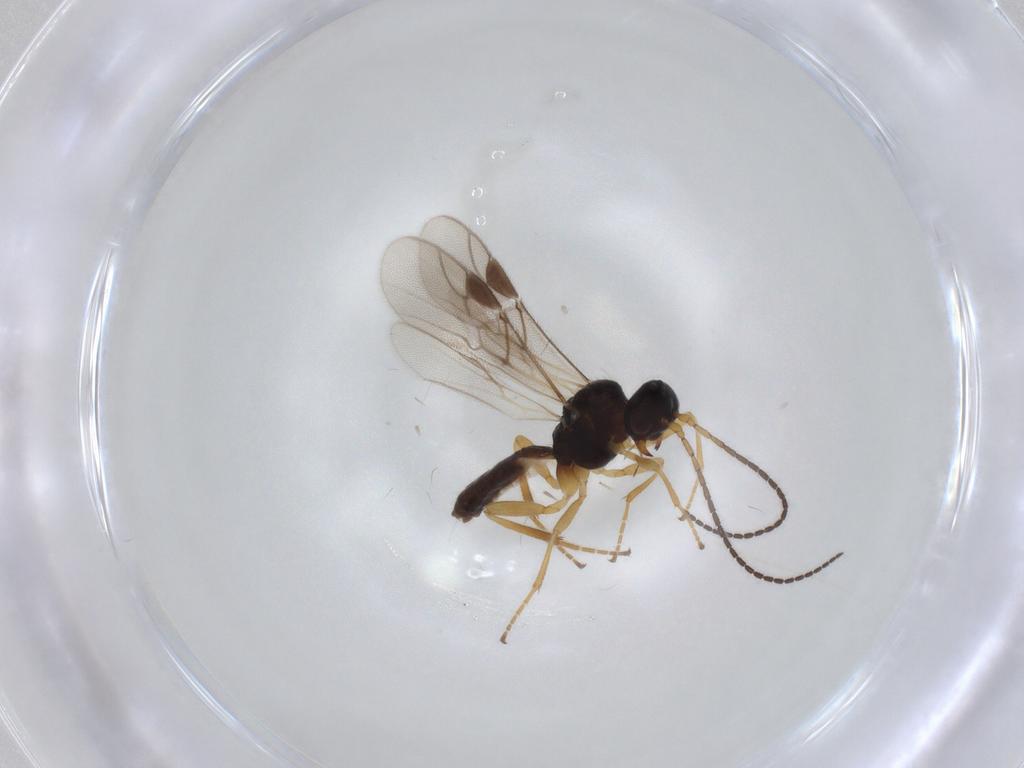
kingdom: Animalia
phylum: Arthropoda
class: Insecta
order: Hymenoptera
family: Braconidae
